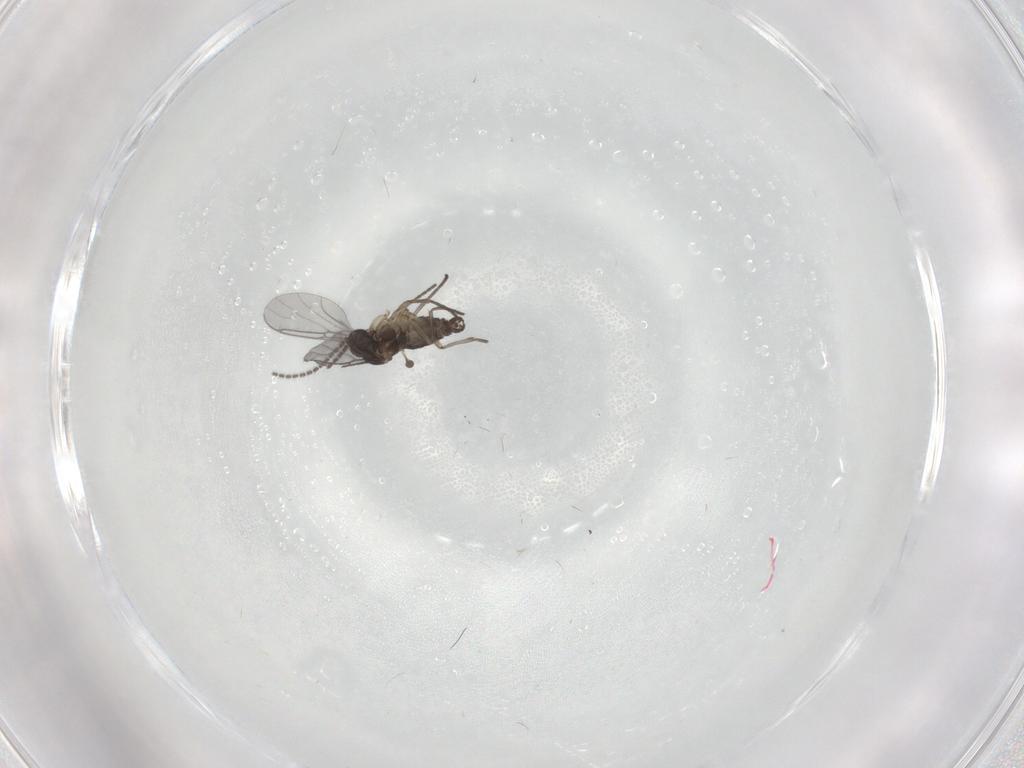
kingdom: Animalia
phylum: Arthropoda
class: Insecta
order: Diptera
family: Sciaridae
